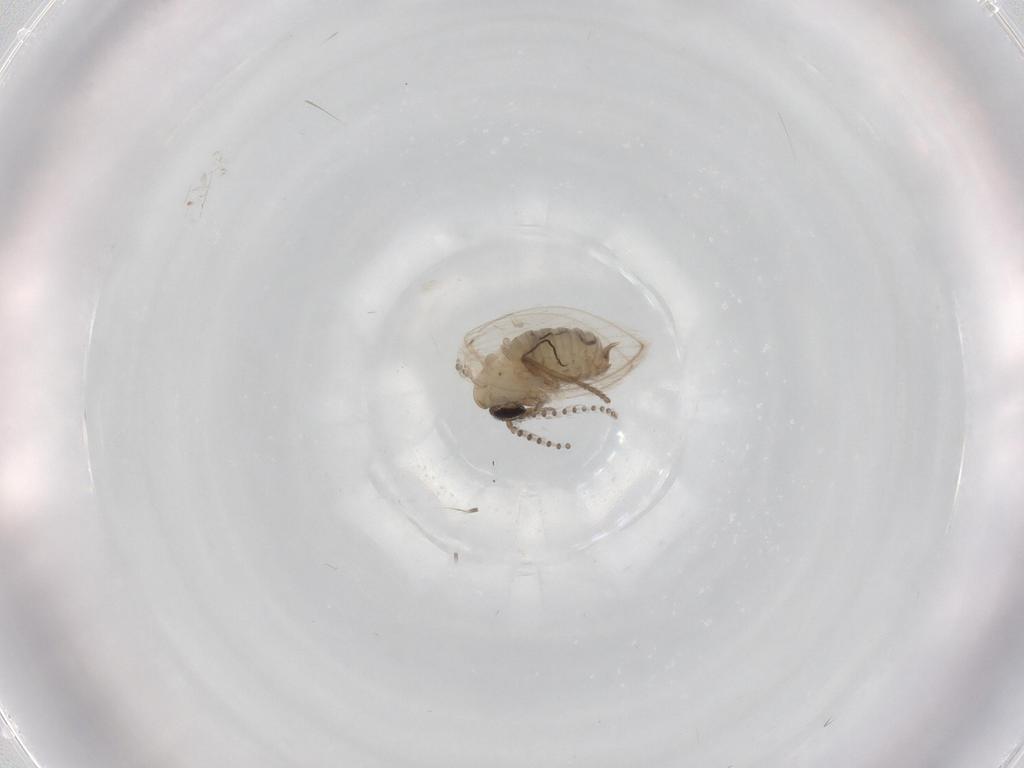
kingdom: Animalia
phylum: Arthropoda
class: Insecta
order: Diptera
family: Psychodidae
